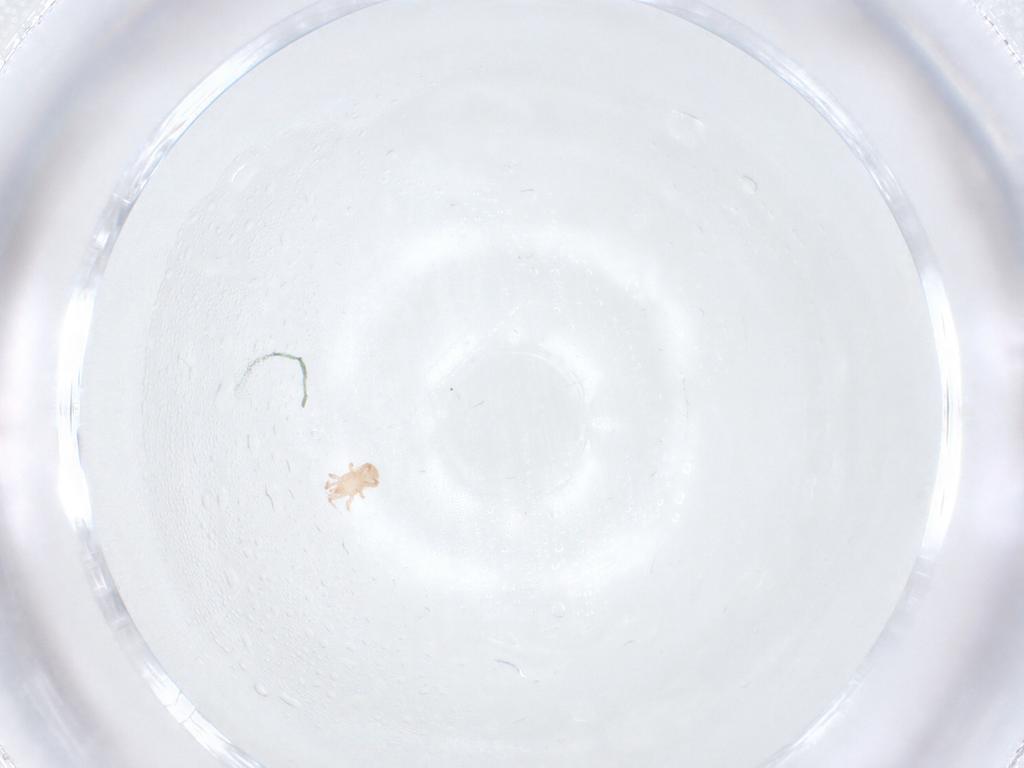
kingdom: Animalia
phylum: Arthropoda
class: Arachnida
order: Mesostigmata
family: Digamasellidae
